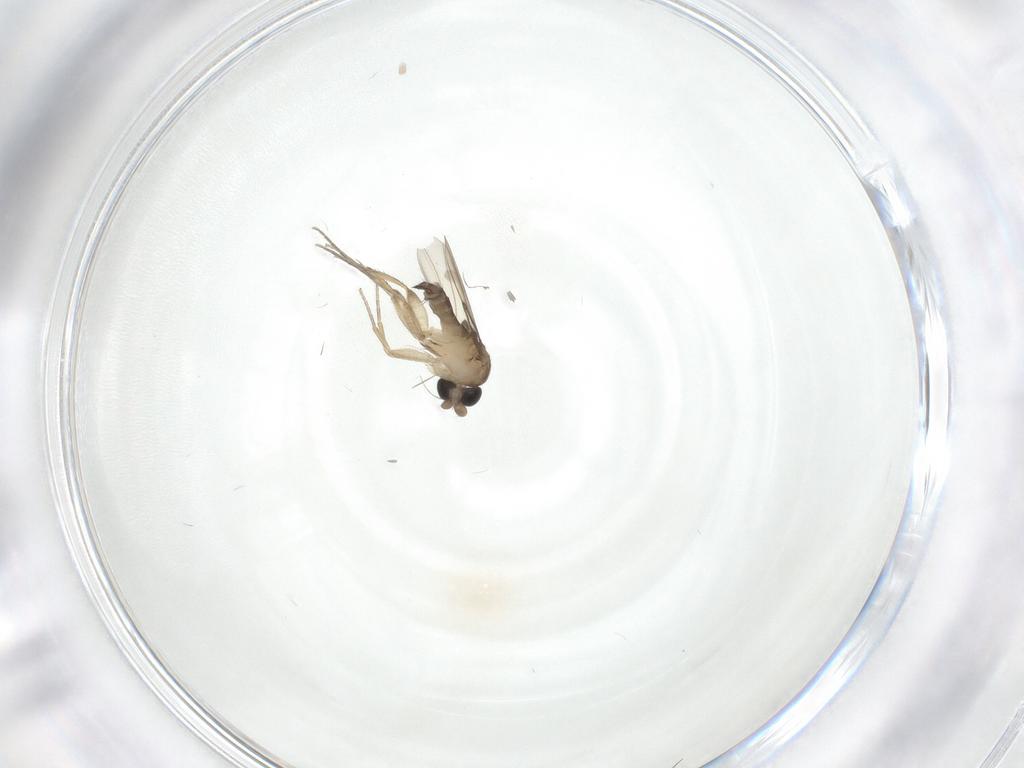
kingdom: Animalia
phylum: Arthropoda
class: Insecta
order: Diptera
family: Phoridae
